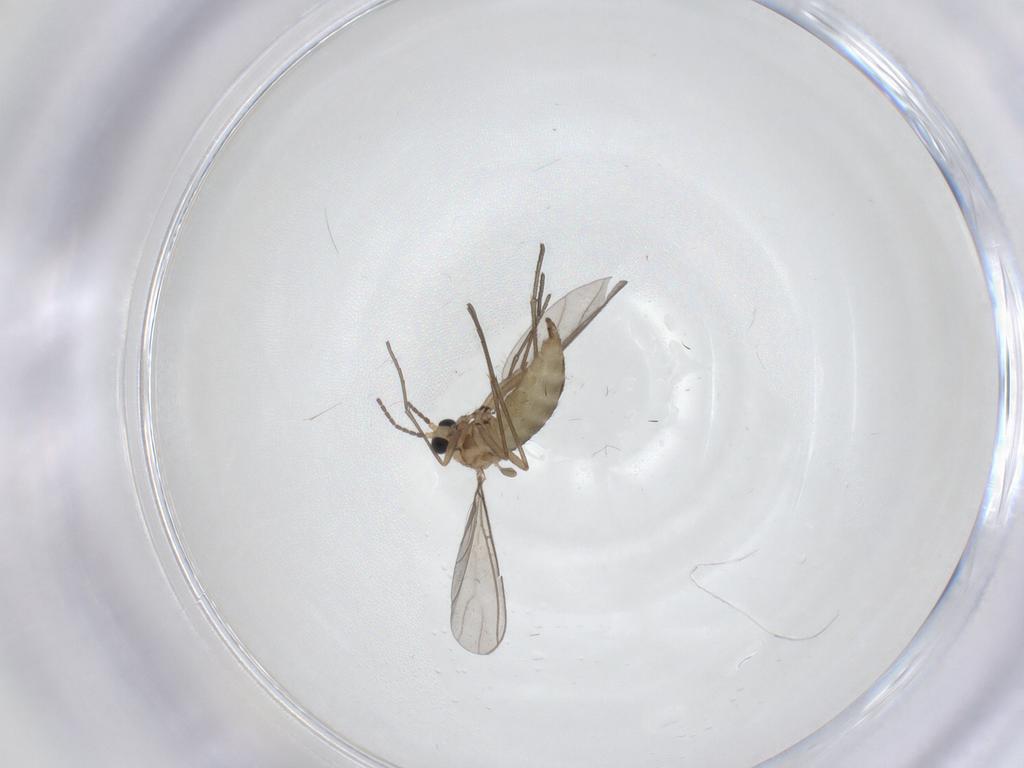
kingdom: Animalia
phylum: Arthropoda
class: Insecta
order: Diptera
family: Sciaridae
